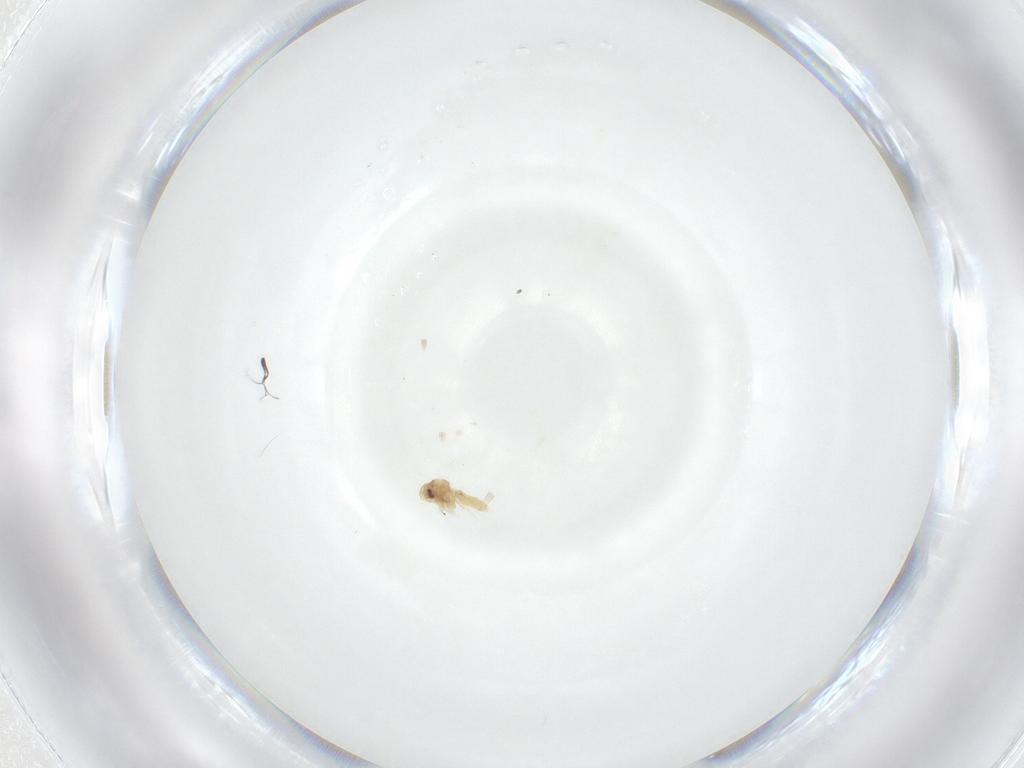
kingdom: Animalia
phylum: Arthropoda
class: Insecta
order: Hemiptera
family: Aleyrodidae
